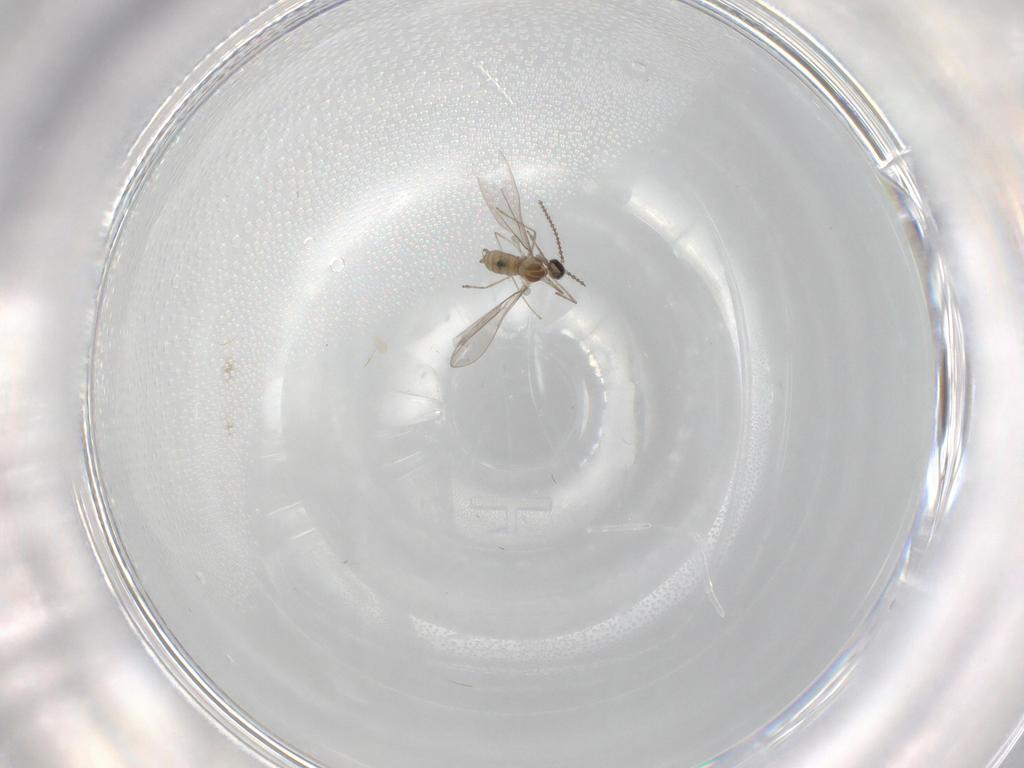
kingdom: Animalia
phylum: Arthropoda
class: Insecta
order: Diptera
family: Cecidomyiidae
